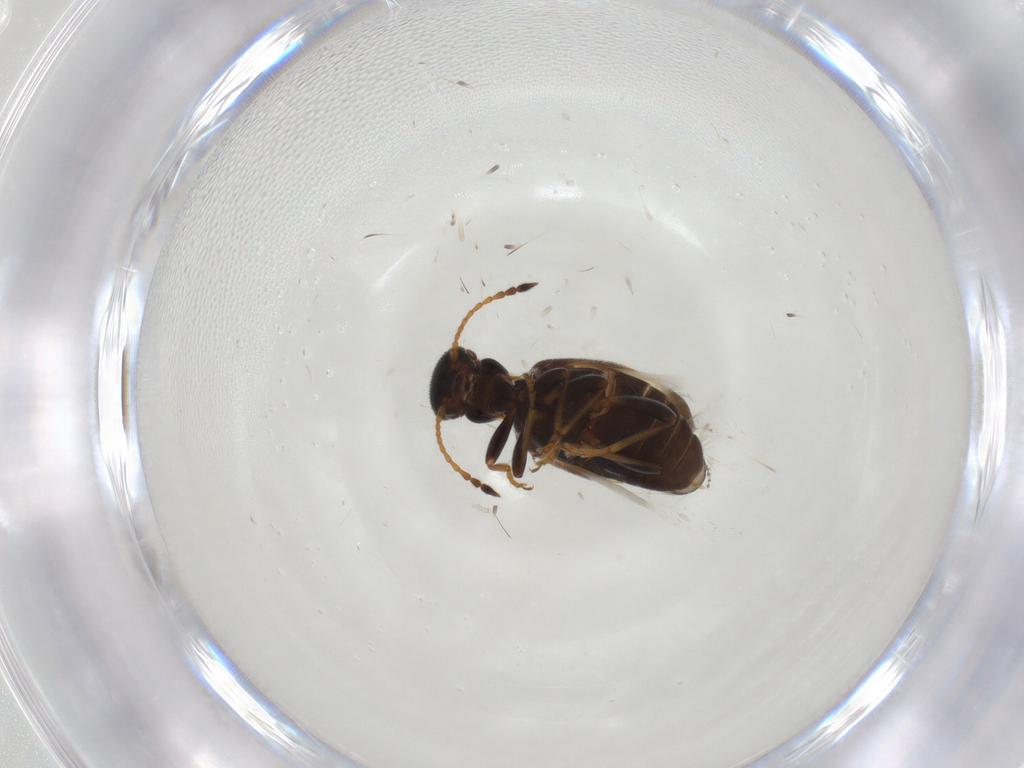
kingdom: Animalia
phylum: Arthropoda
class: Insecta
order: Coleoptera
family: Anthicidae
